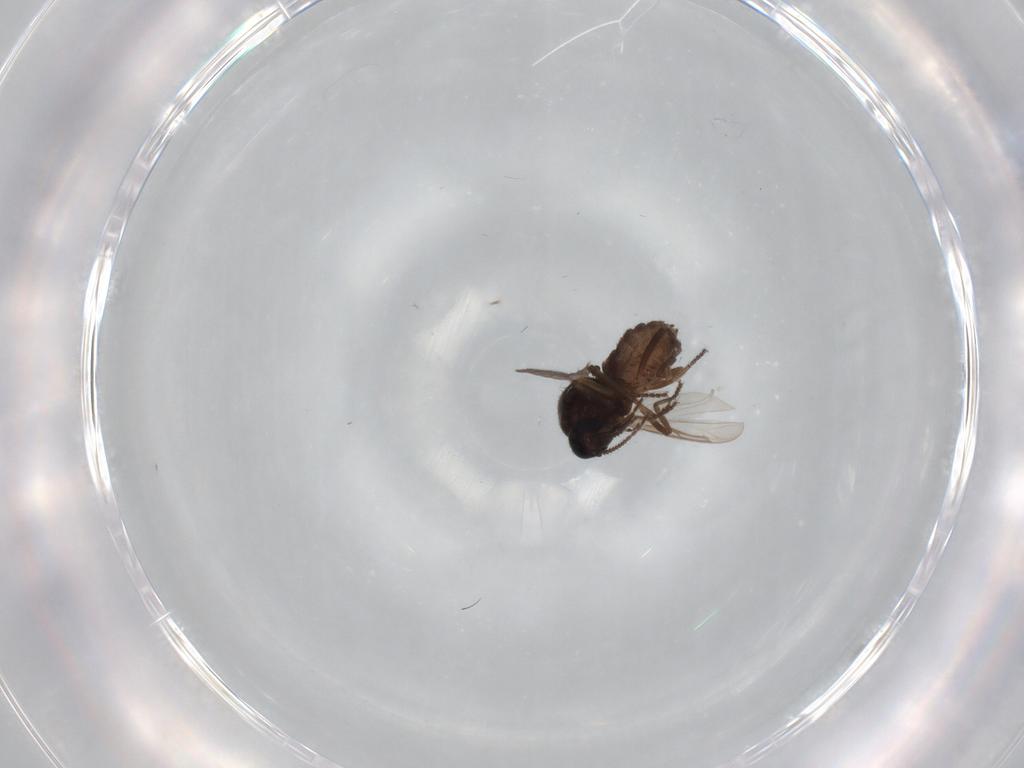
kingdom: Animalia
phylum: Arthropoda
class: Insecta
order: Diptera
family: Ceratopogonidae
